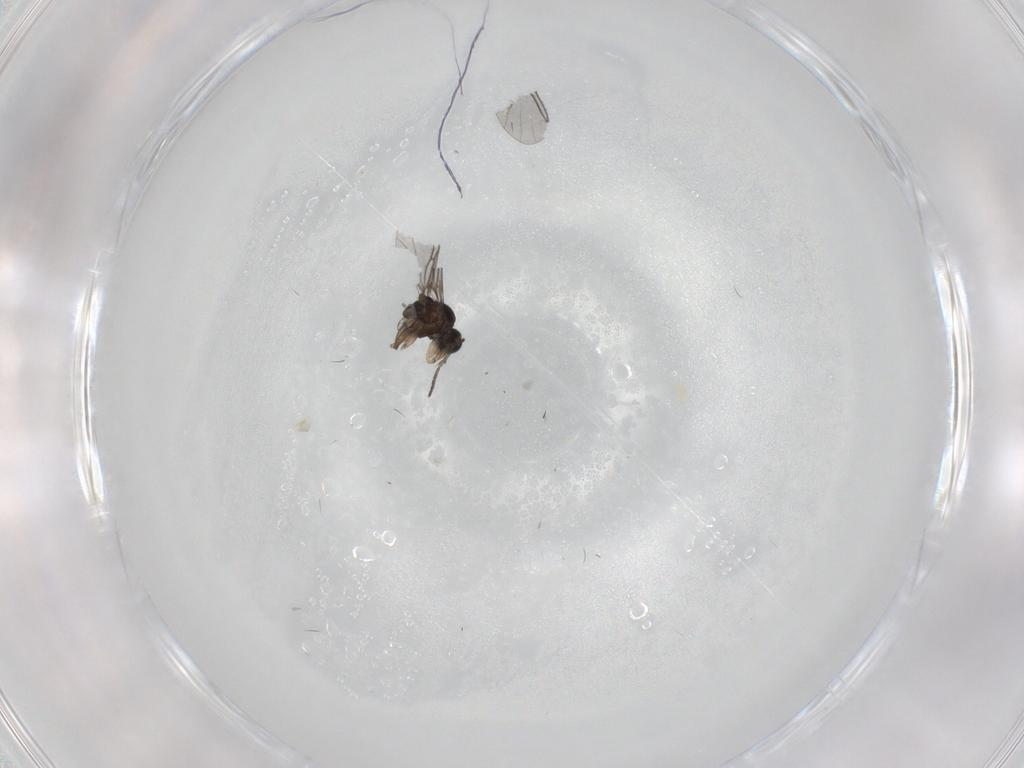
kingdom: Animalia
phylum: Arthropoda
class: Insecta
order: Diptera
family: Sciaridae
